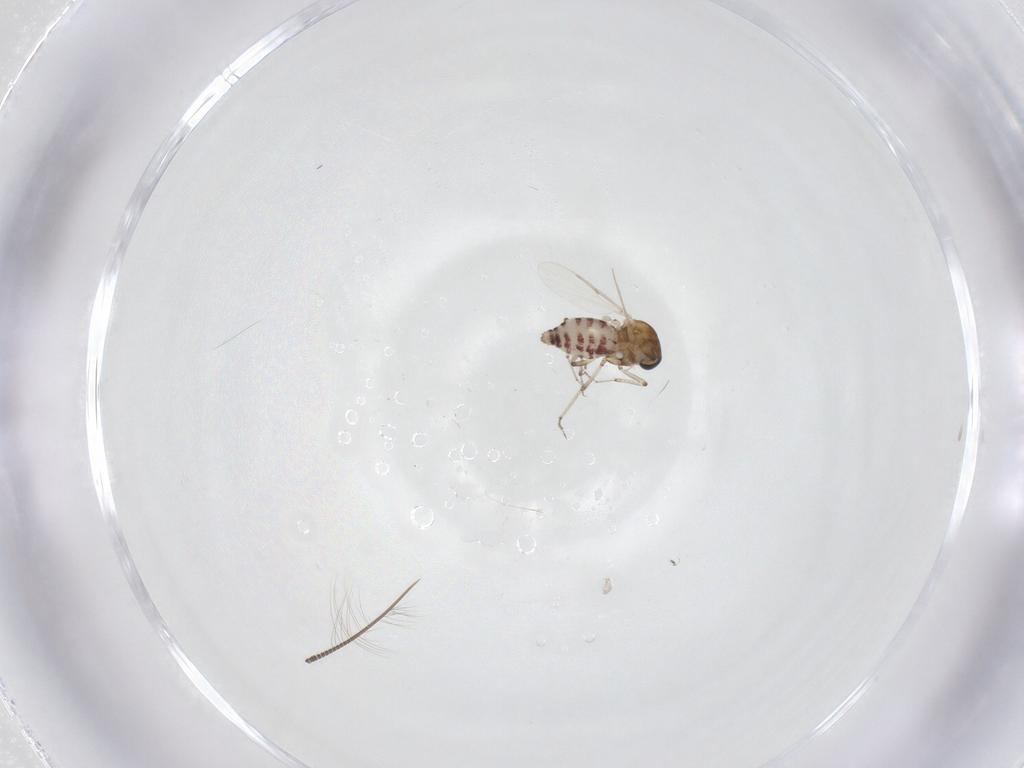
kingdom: Animalia
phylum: Arthropoda
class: Insecta
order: Diptera
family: Ceratopogonidae
